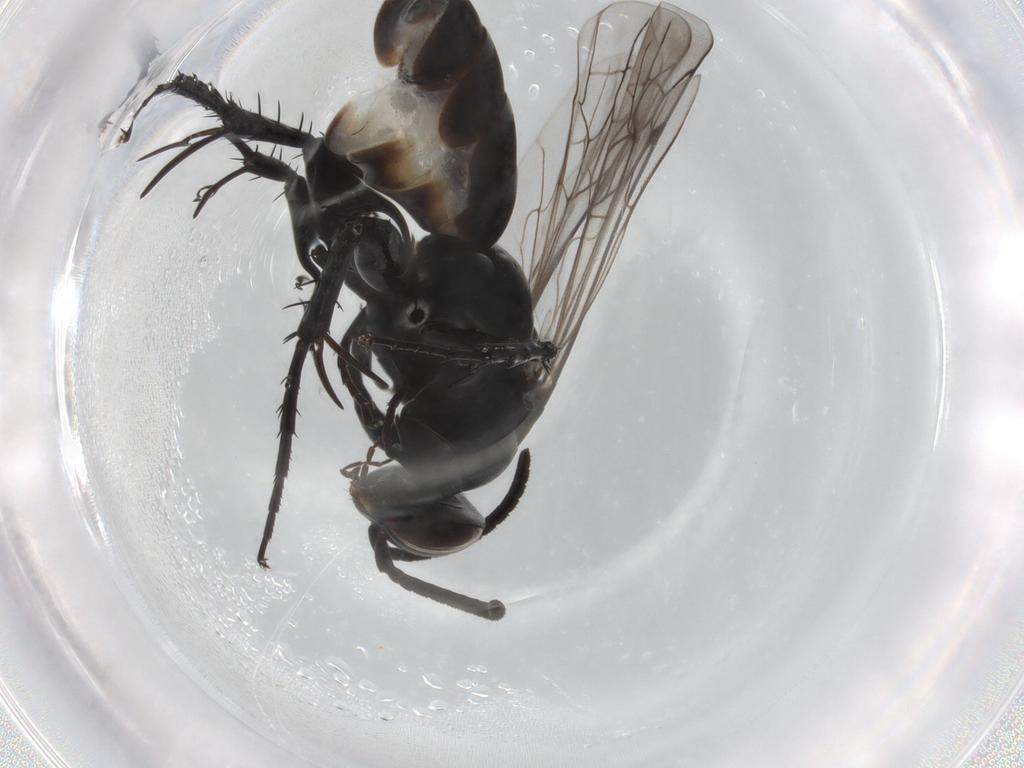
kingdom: Animalia
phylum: Arthropoda
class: Insecta
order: Hymenoptera
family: Pompilidae
